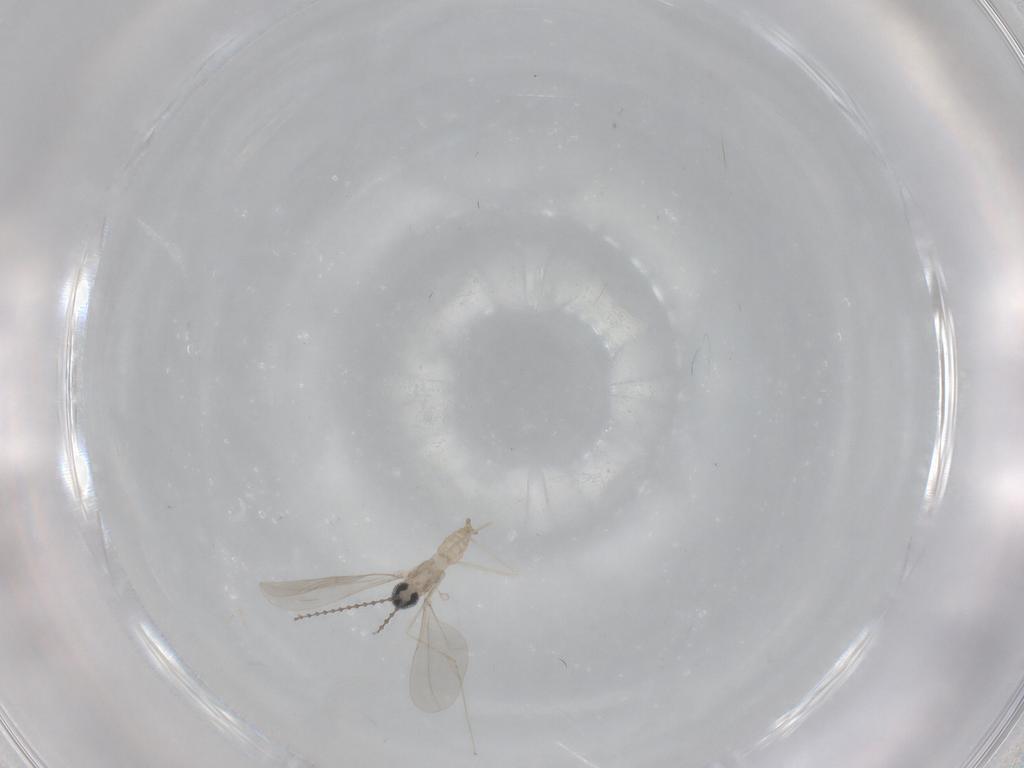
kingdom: Animalia
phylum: Arthropoda
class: Insecta
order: Diptera
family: Cecidomyiidae
